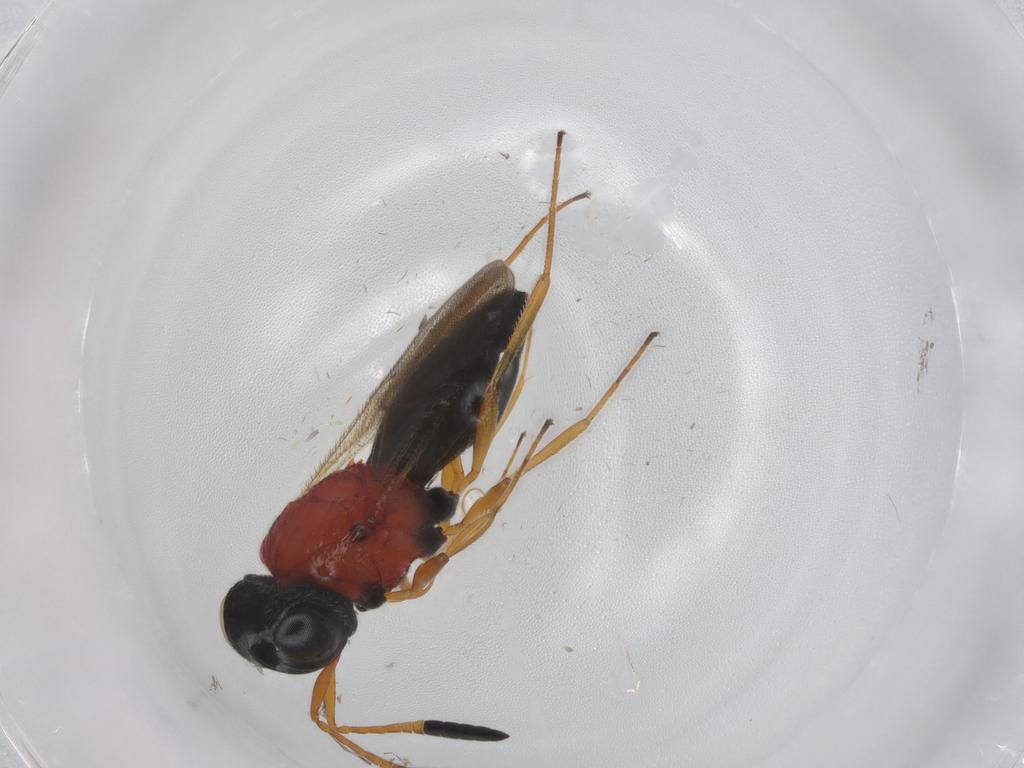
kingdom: Animalia
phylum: Arthropoda
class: Insecta
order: Hymenoptera
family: Scelionidae
